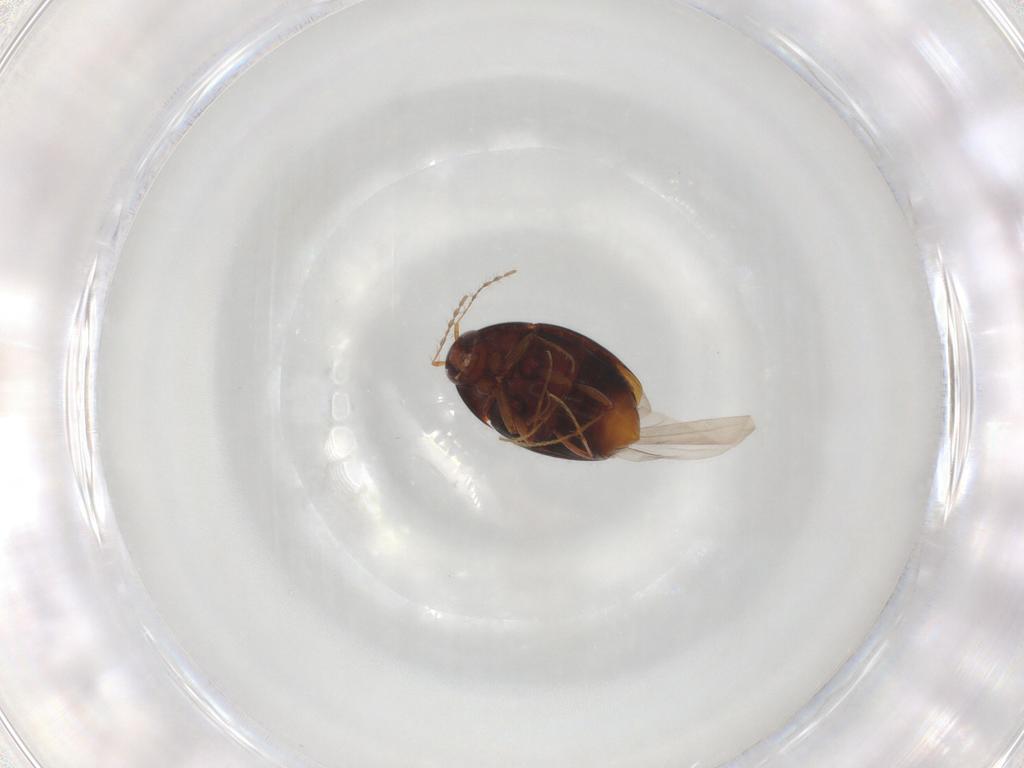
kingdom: Animalia
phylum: Arthropoda
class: Insecta
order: Coleoptera
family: Staphylinidae
